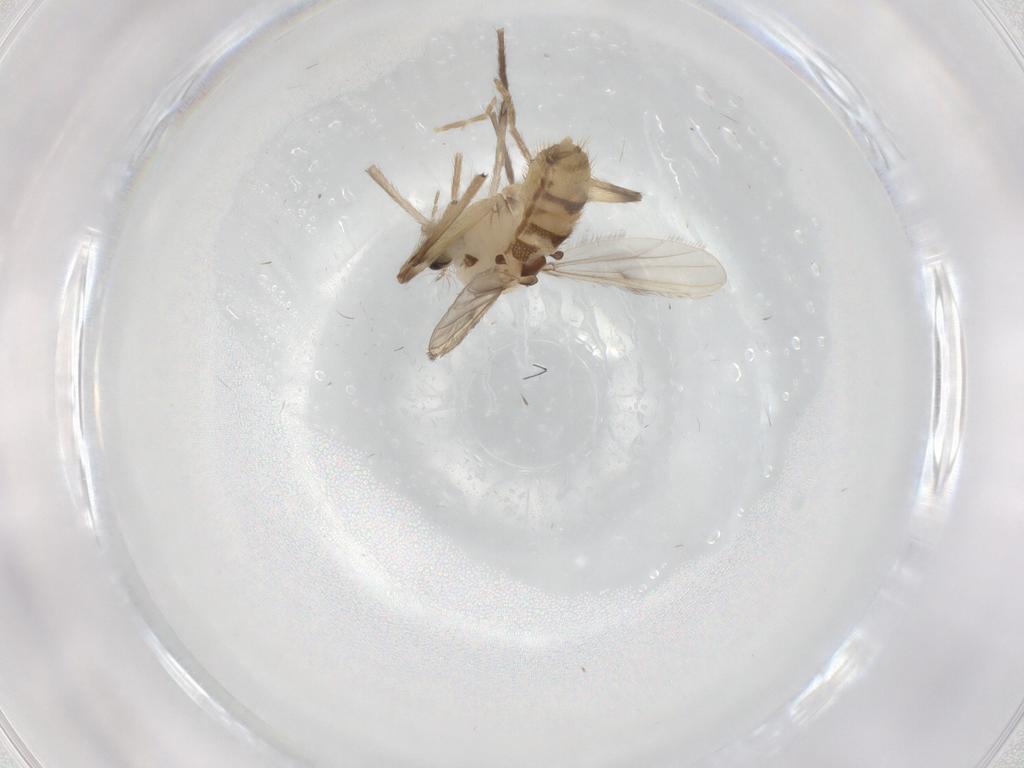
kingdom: Animalia
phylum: Arthropoda
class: Insecta
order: Diptera
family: Chironomidae
